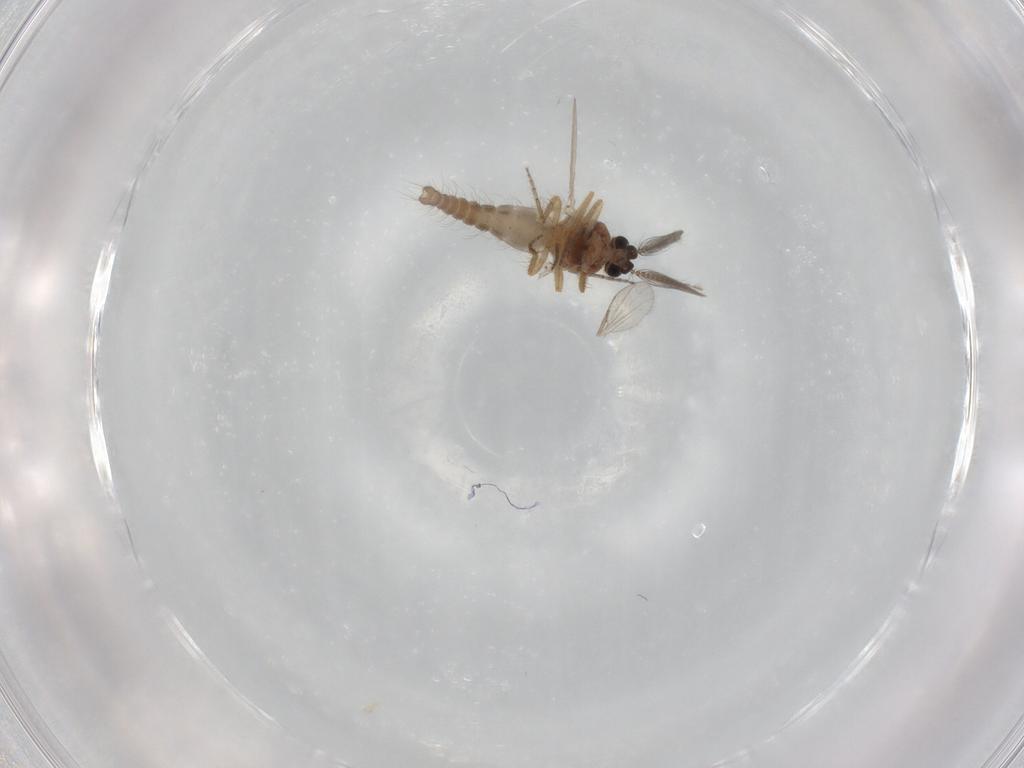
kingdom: Animalia
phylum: Arthropoda
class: Insecta
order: Diptera
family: Ceratopogonidae
